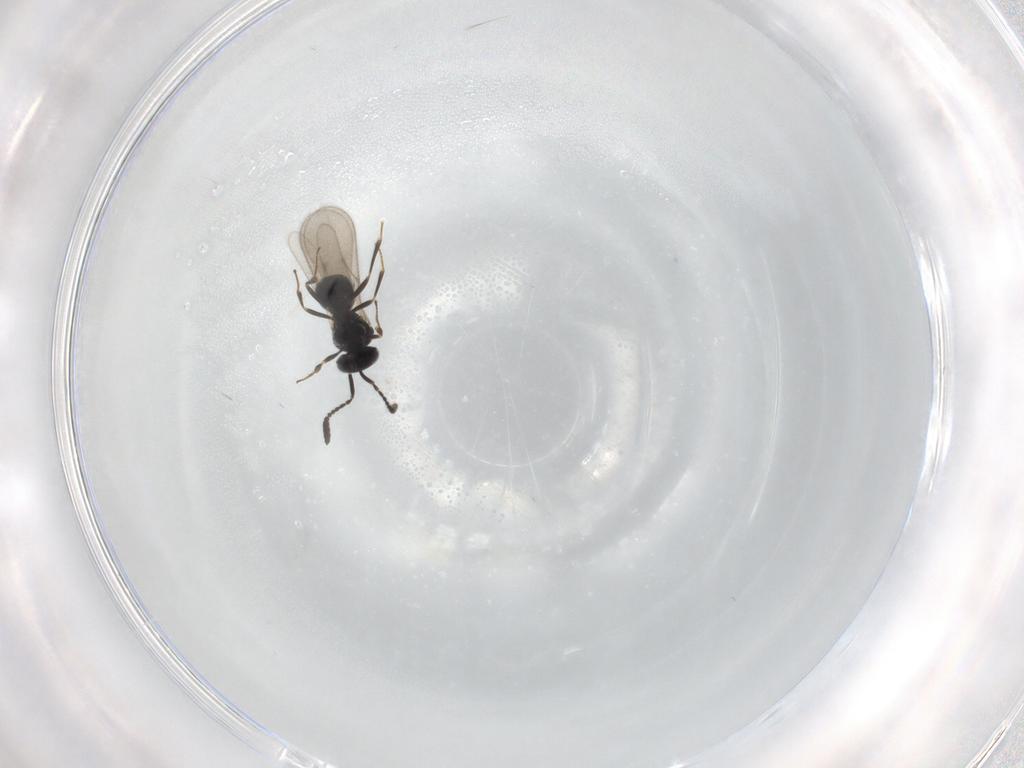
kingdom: Animalia
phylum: Arthropoda
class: Insecta
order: Hymenoptera
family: Scelionidae
